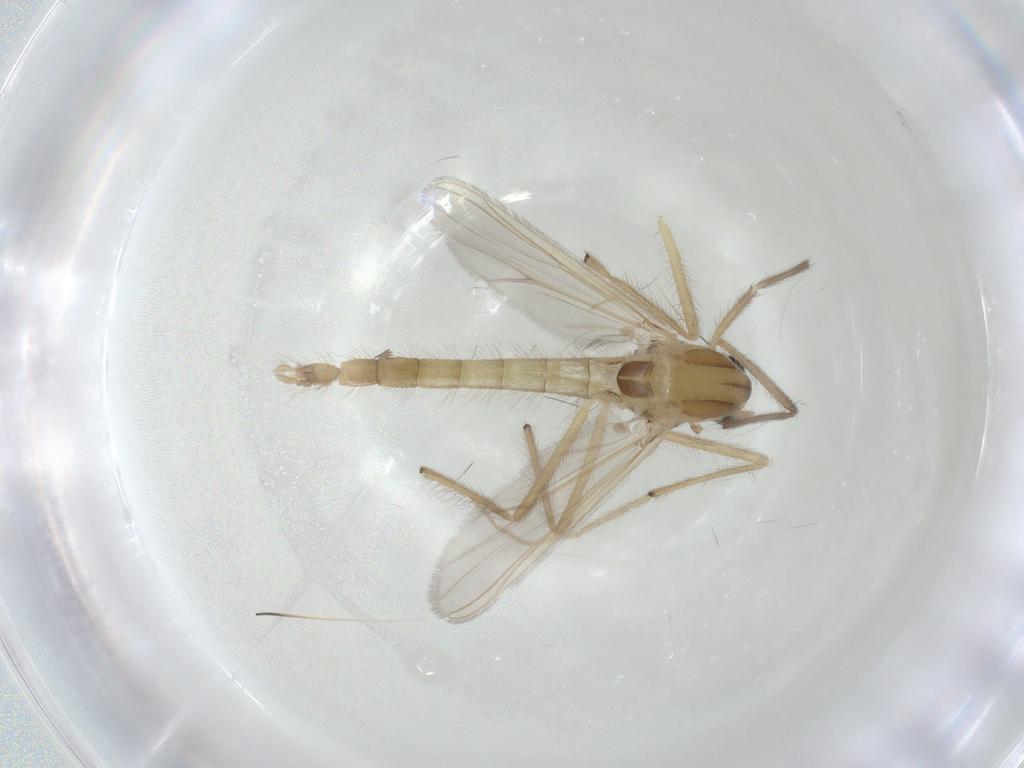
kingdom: Animalia
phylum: Arthropoda
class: Insecta
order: Diptera
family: Chironomidae
